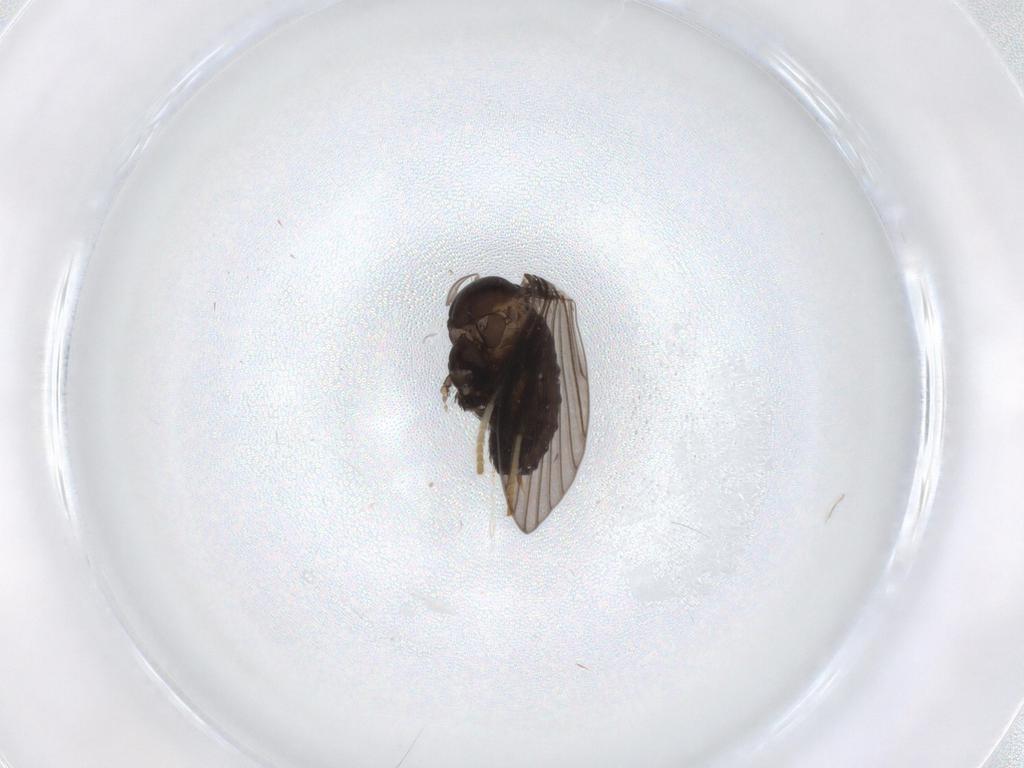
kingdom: Animalia
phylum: Arthropoda
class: Insecta
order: Diptera
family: Psychodidae
